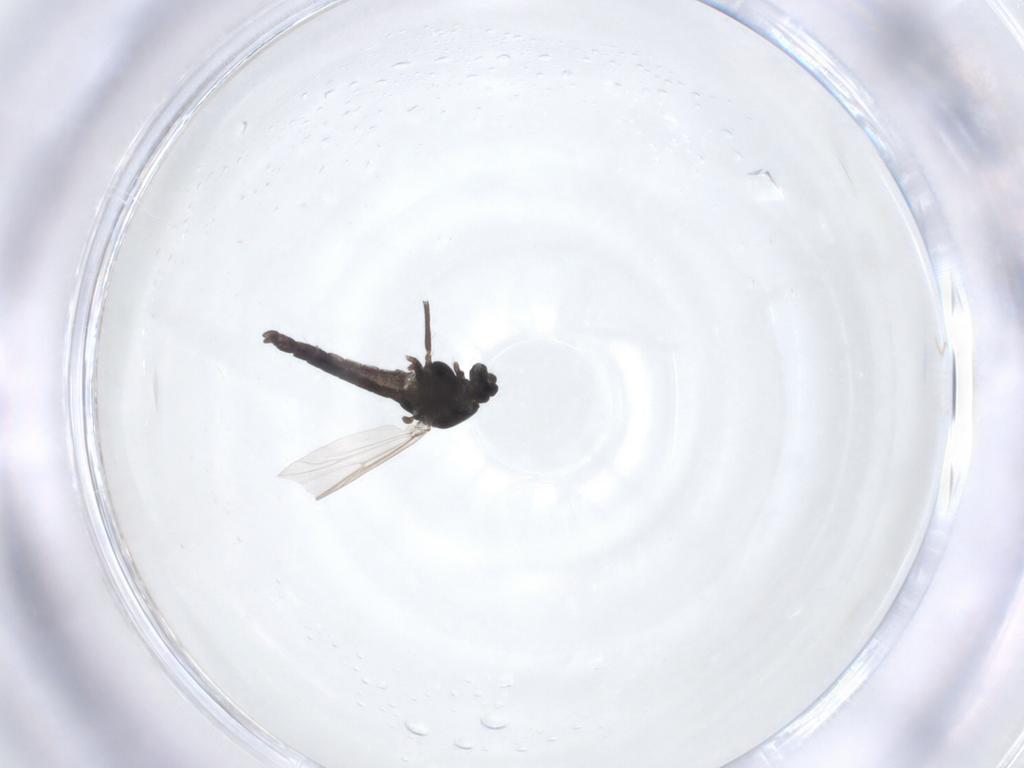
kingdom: Animalia
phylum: Arthropoda
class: Insecta
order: Diptera
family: Chironomidae
